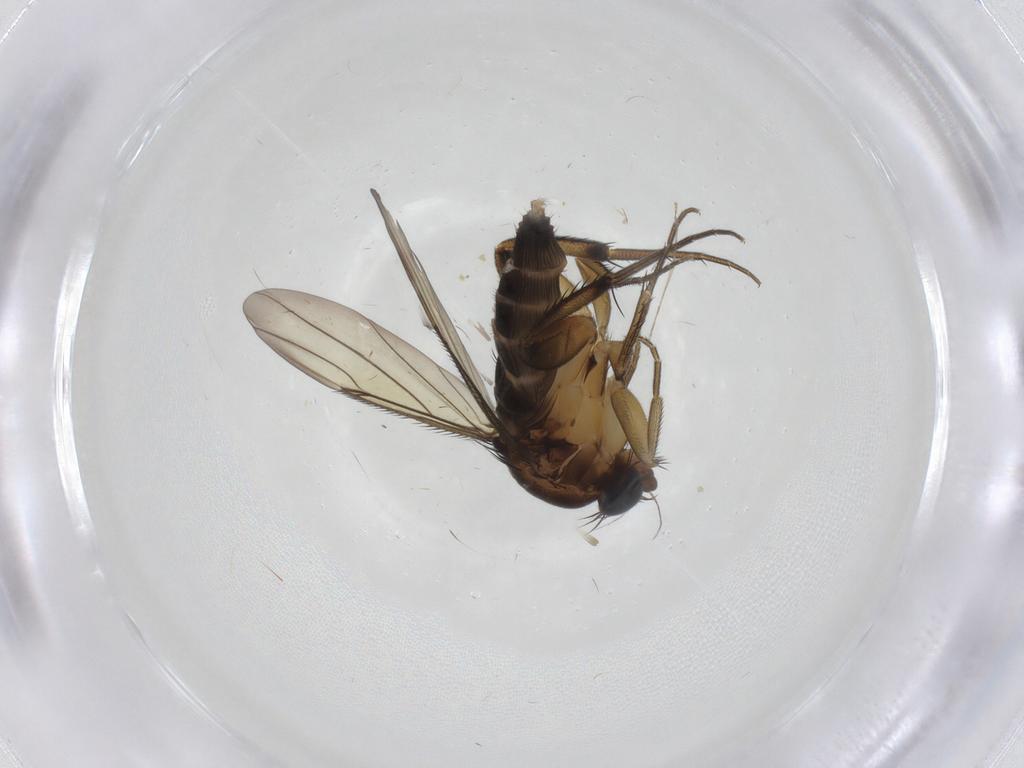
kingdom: Animalia
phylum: Arthropoda
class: Insecta
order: Diptera
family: Phoridae
